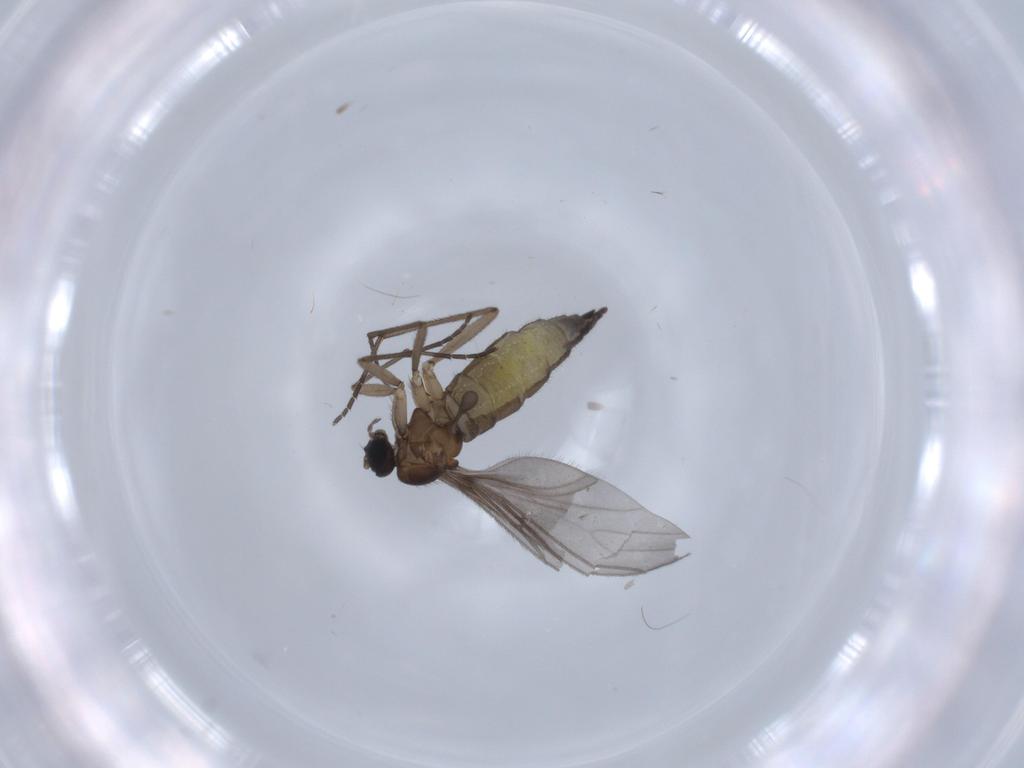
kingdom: Animalia
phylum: Arthropoda
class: Insecta
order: Diptera
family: Sciaridae
